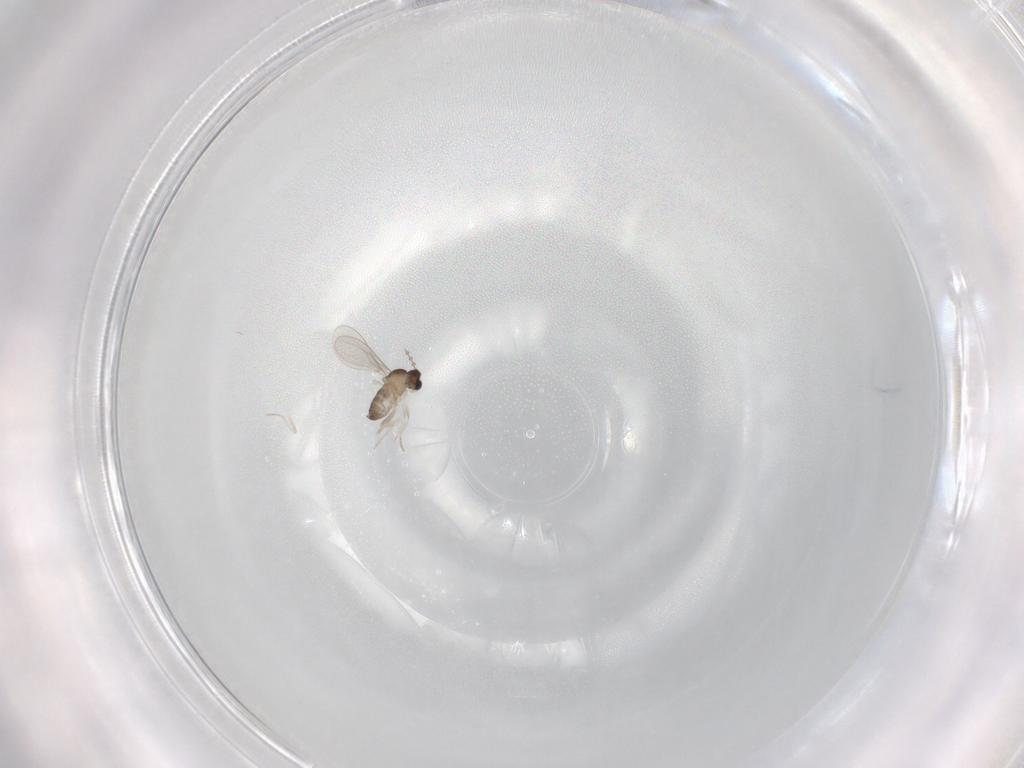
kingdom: Animalia
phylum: Arthropoda
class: Insecta
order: Diptera
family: Cecidomyiidae
